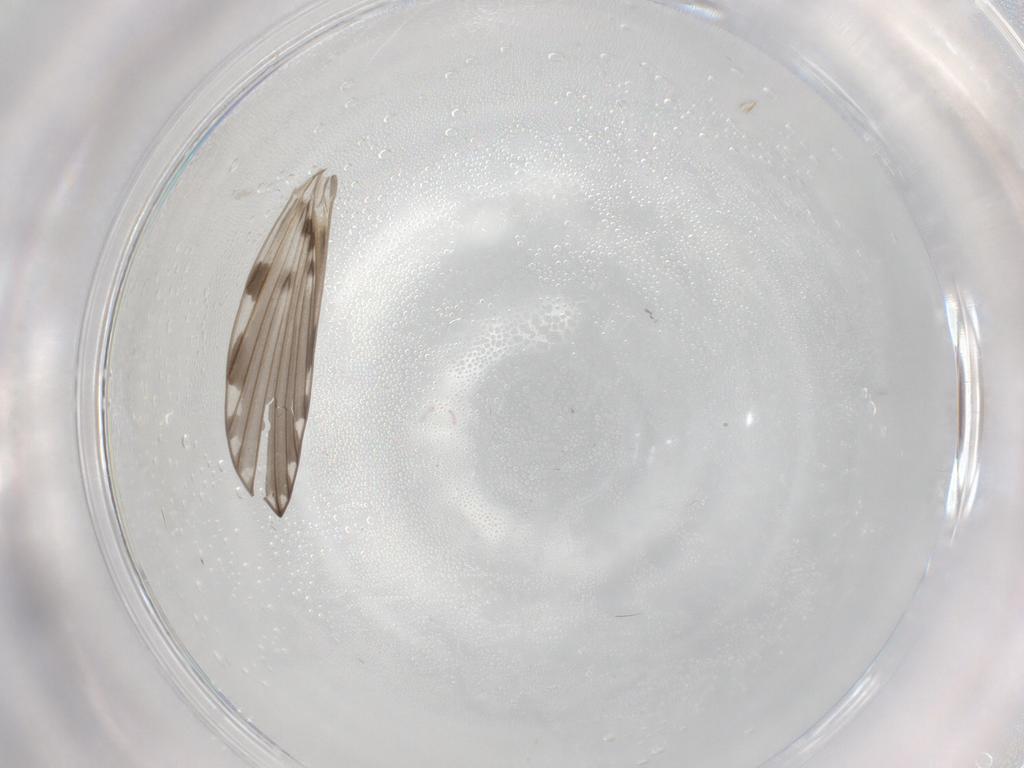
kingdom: Animalia
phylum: Arthropoda
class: Insecta
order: Diptera
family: Psychodidae
